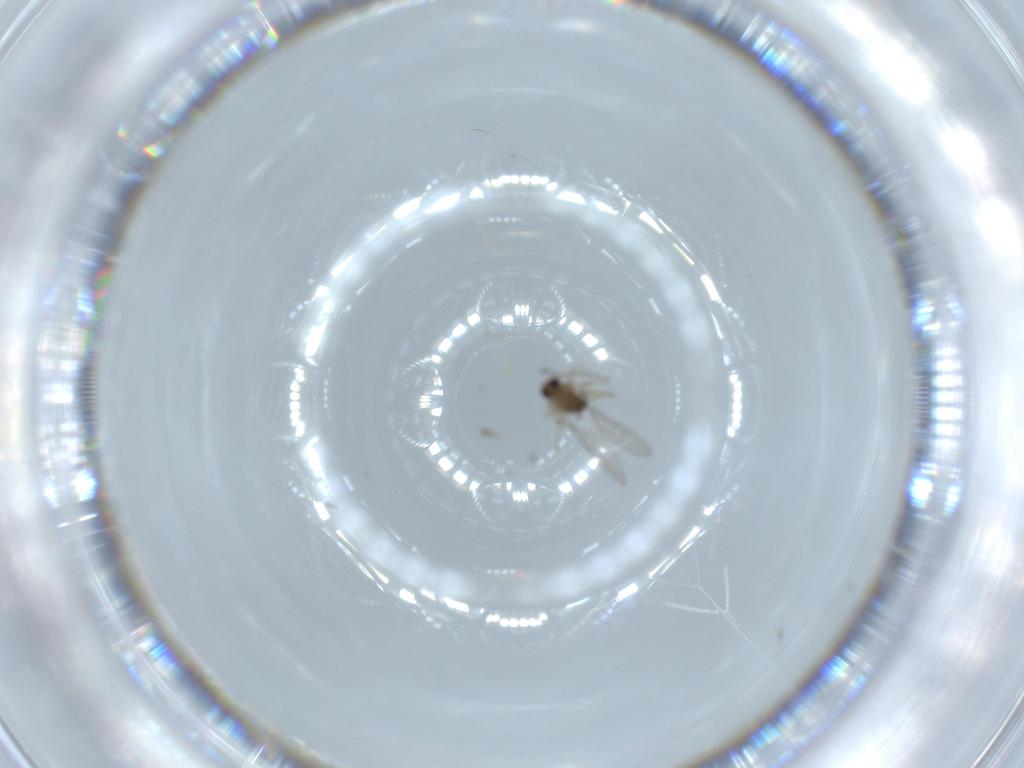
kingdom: Animalia
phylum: Arthropoda
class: Insecta
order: Diptera
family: Cecidomyiidae
